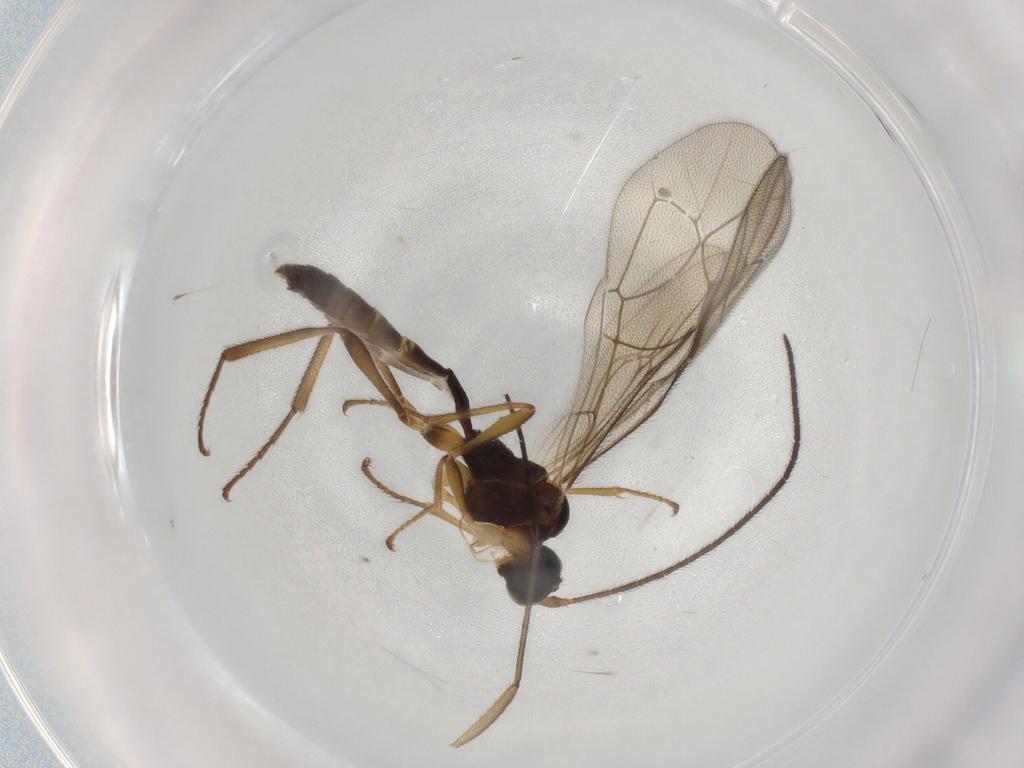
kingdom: Animalia
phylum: Arthropoda
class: Insecta
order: Hymenoptera
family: Ichneumonidae
